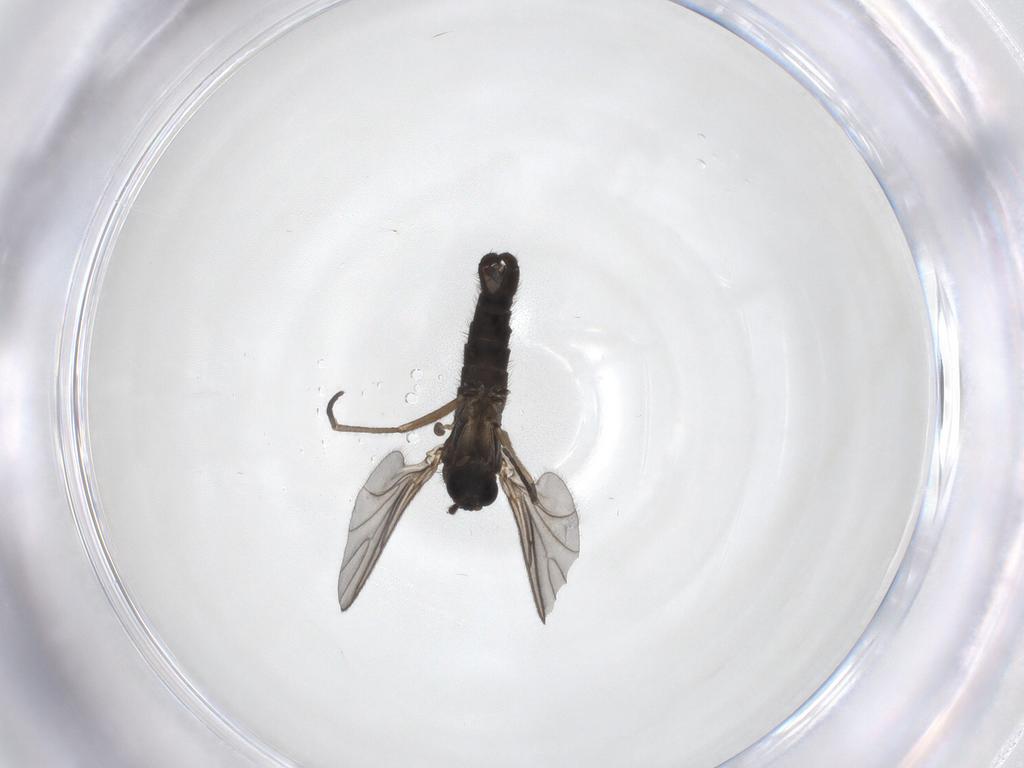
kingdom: Animalia
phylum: Arthropoda
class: Insecta
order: Diptera
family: Sciaridae
